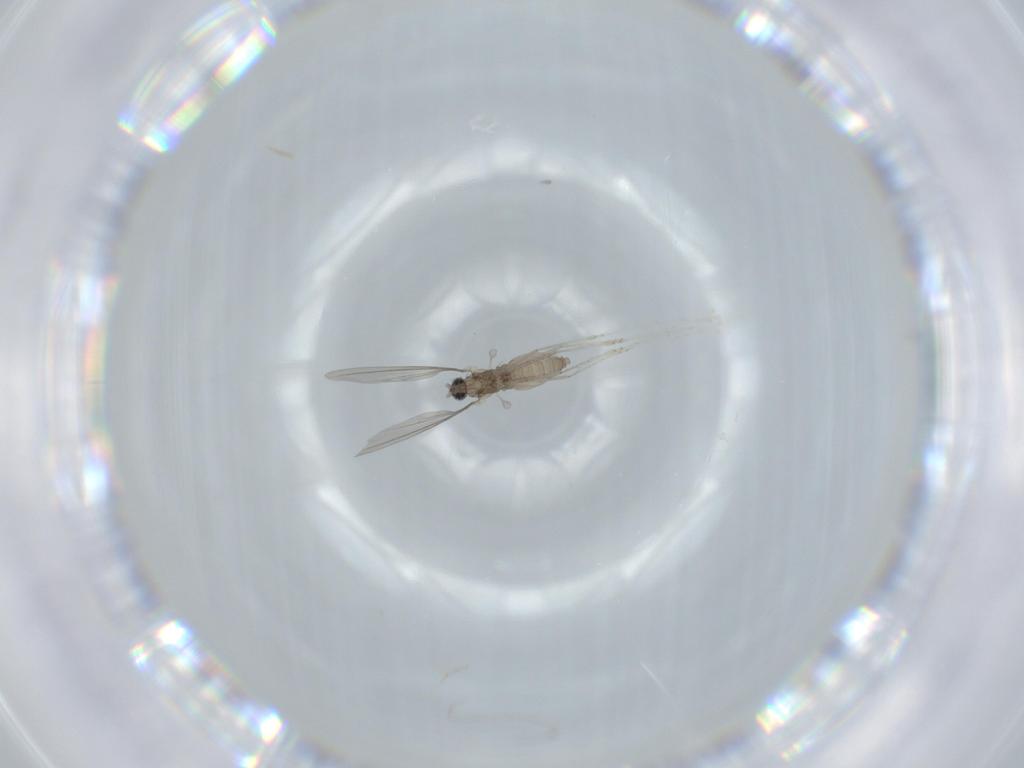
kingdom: Animalia
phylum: Arthropoda
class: Insecta
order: Diptera
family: Cecidomyiidae
